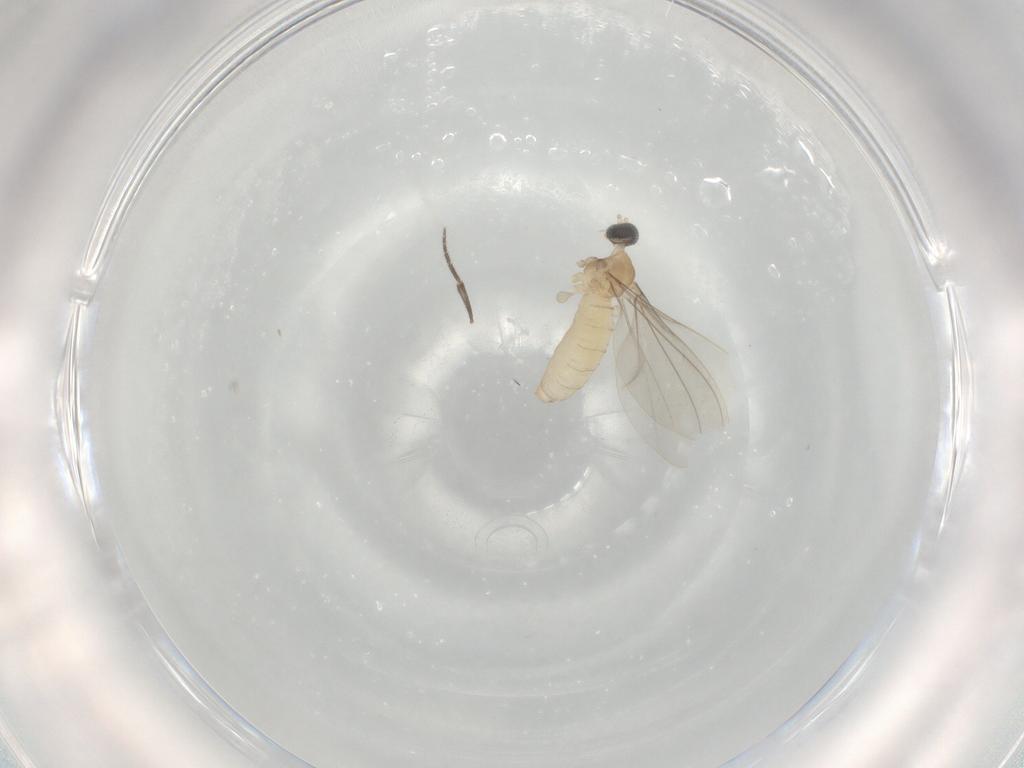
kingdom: Animalia
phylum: Arthropoda
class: Insecta
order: Diptera
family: Cecidomyiidae
